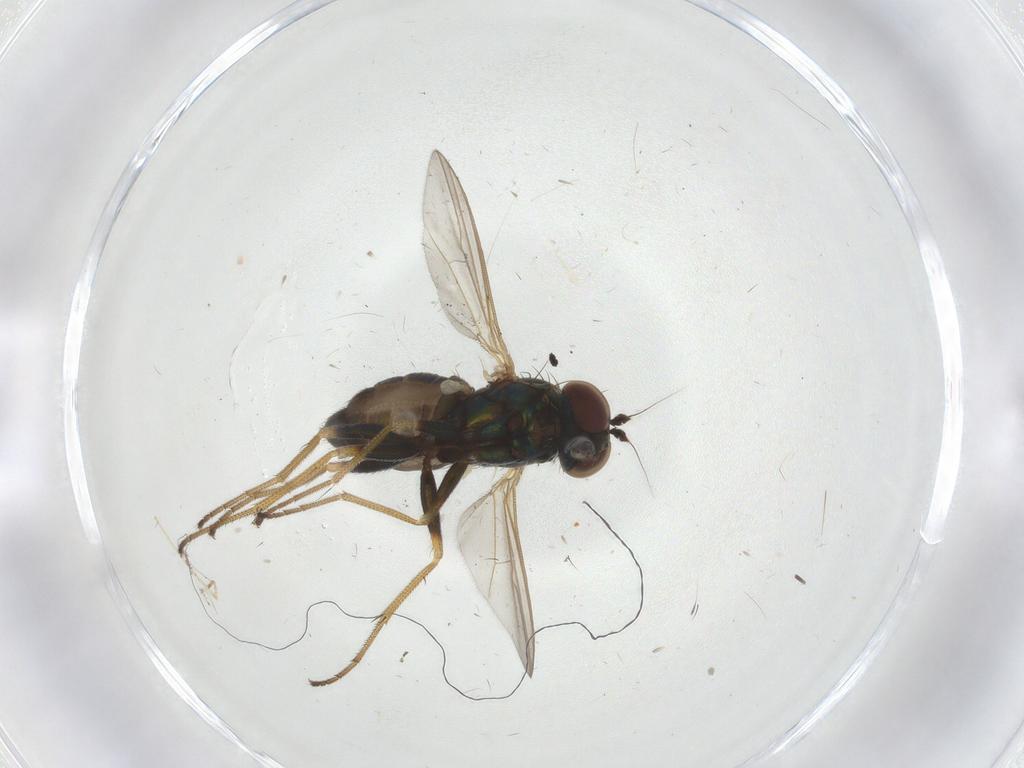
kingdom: Animalia
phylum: Arthropoda
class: Insecta
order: Diptera
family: Dolichopodidae
